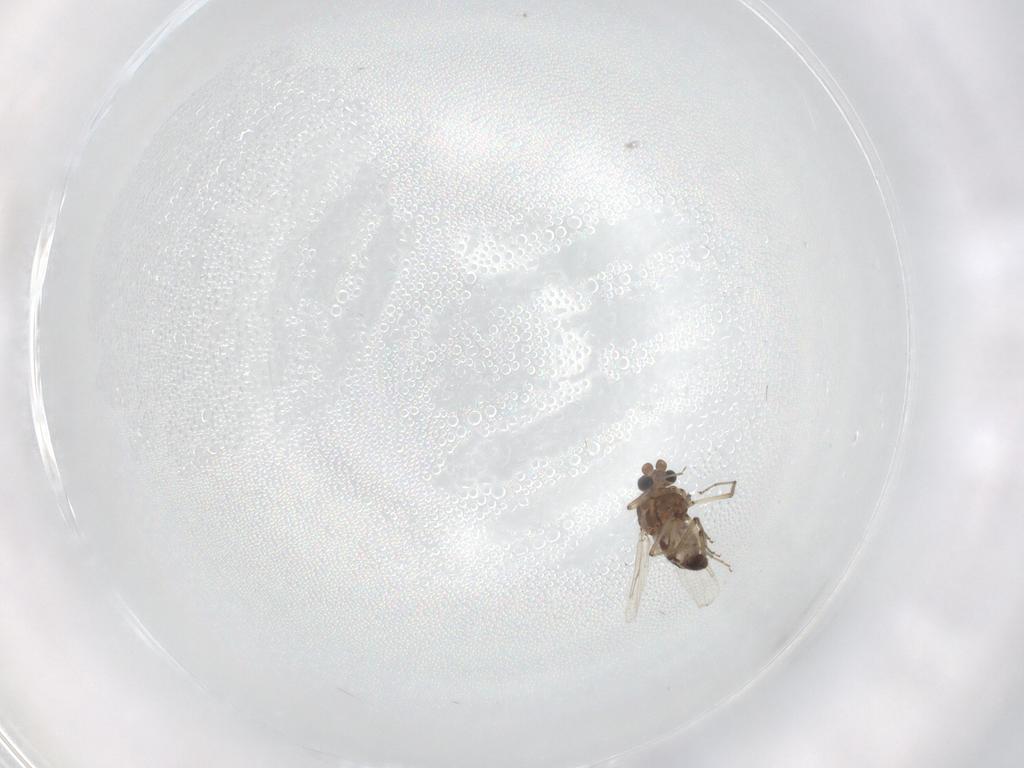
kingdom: Animalia
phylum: Arthropoda
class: Insecta
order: Diptera
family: Ceratopogonidae
